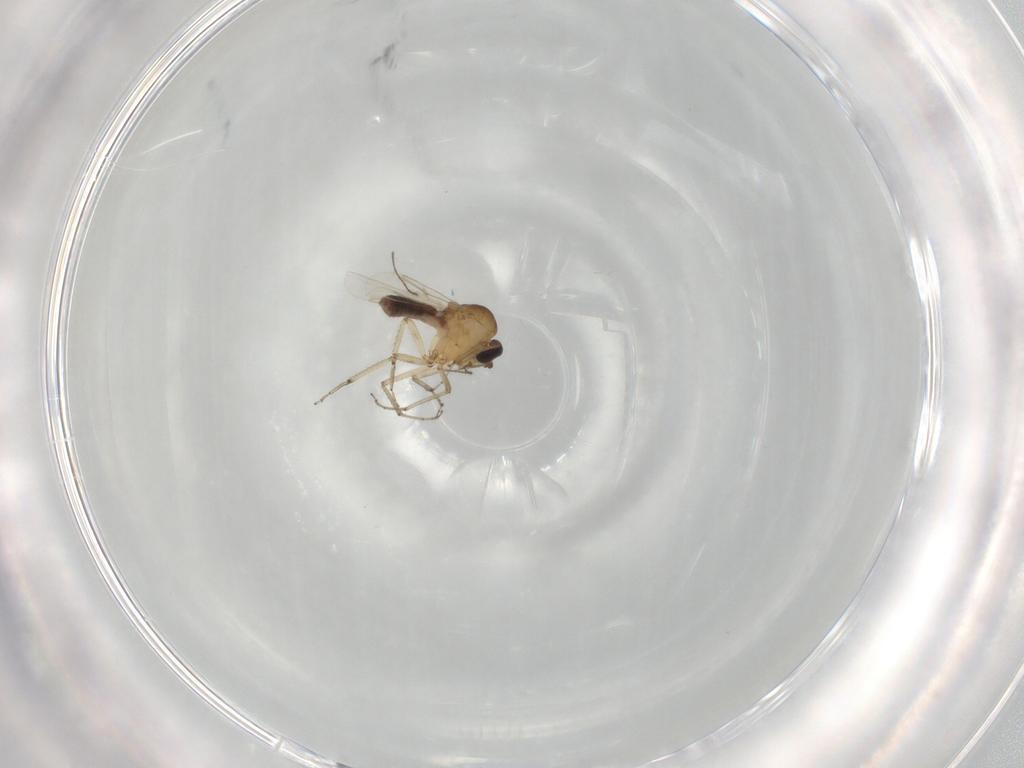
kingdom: Animalia
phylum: Arthropoda
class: Insecta
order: Diptera
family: Ceratopogonidae
